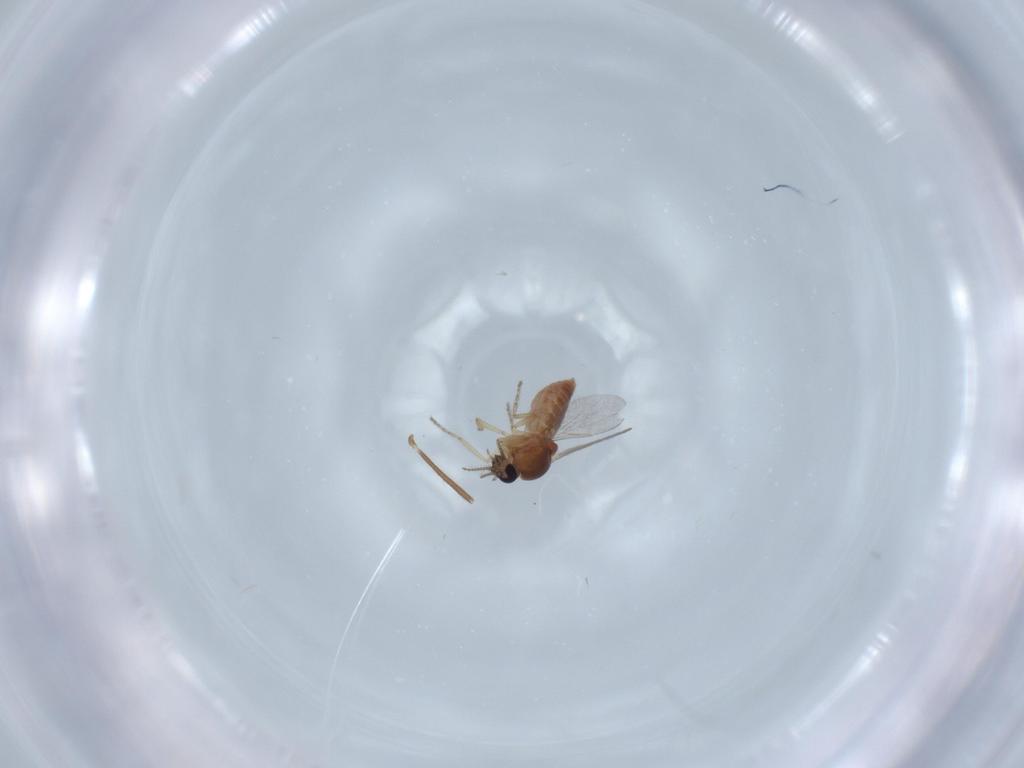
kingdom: Animalia
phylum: Arthropoda
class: Insecta
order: Diptera
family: Ceratopogonidae
